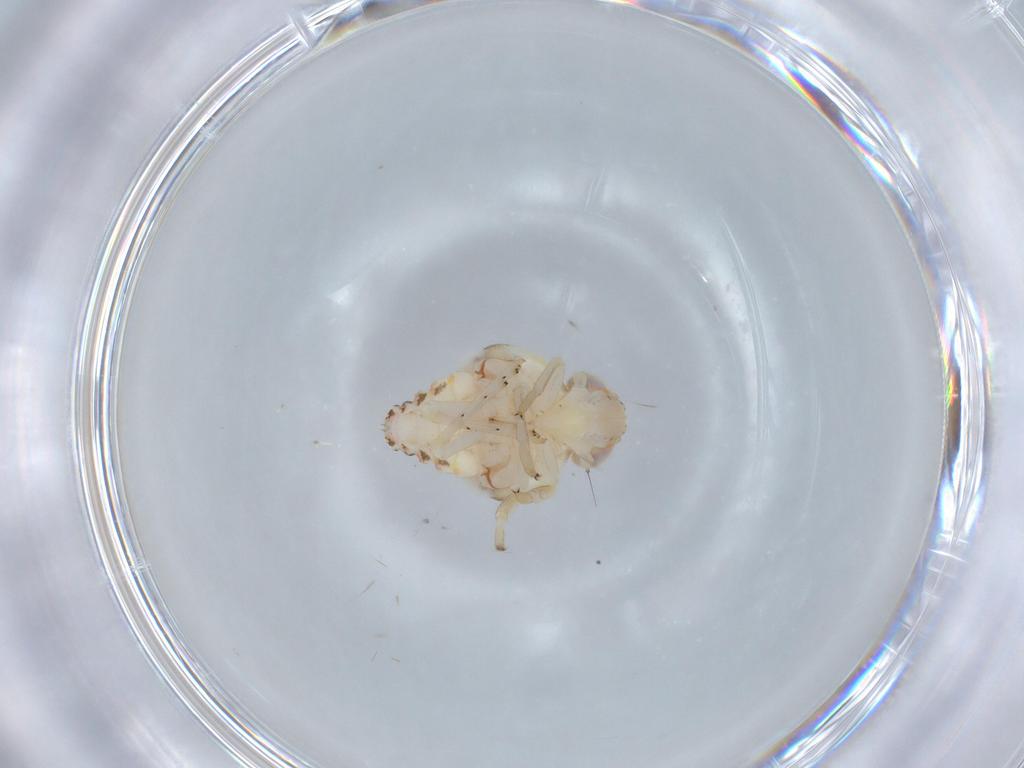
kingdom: Animalia
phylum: Arthropoda
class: Insecta
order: Hemiptera
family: Nogodinidae
